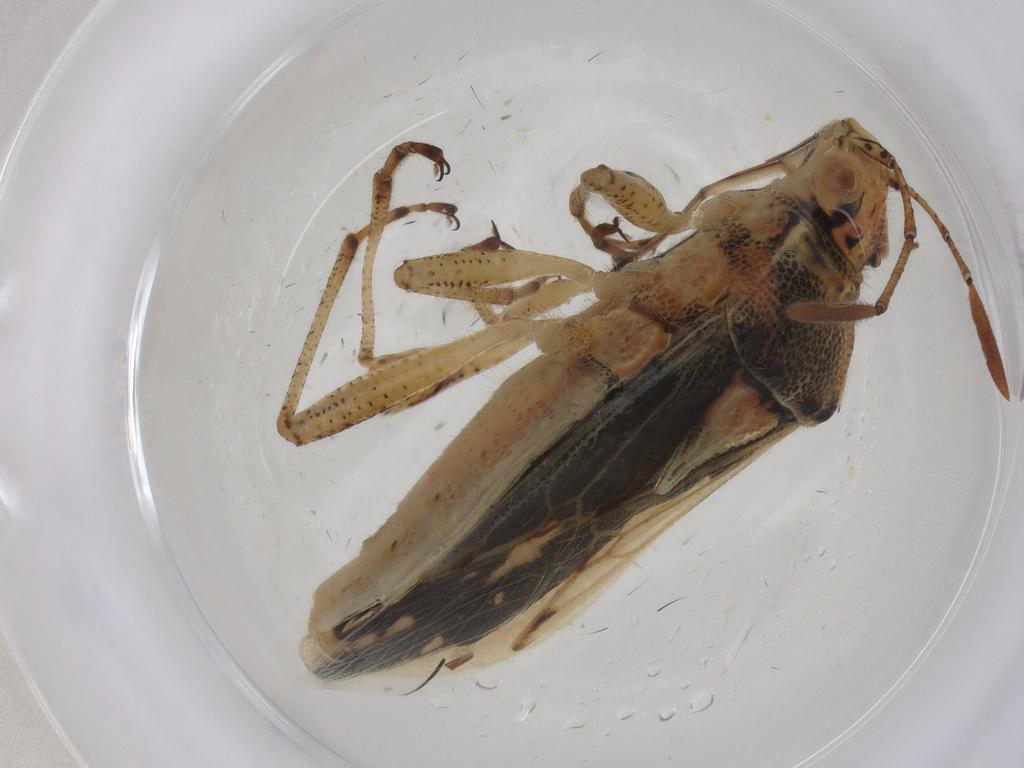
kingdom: Animalia
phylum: Arthropoda
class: Insecta
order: Hemiptera
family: Rhopalidae
